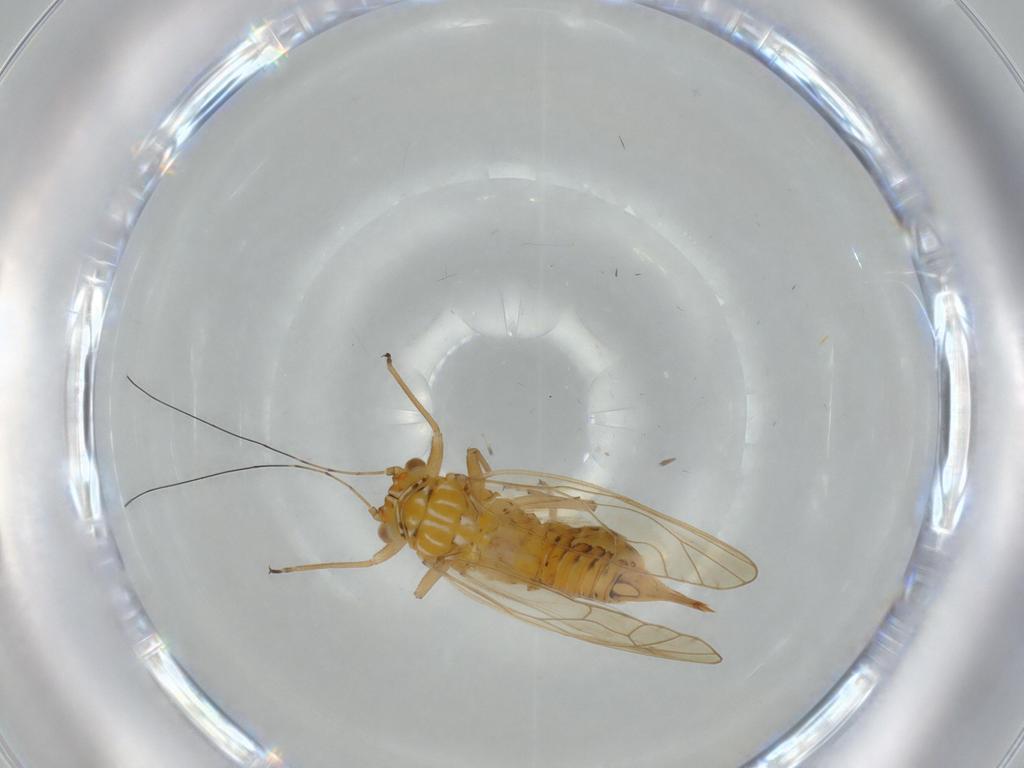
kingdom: Animalia
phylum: Arthropoda
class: Insecta
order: Hemiptera
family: Psyllidae
